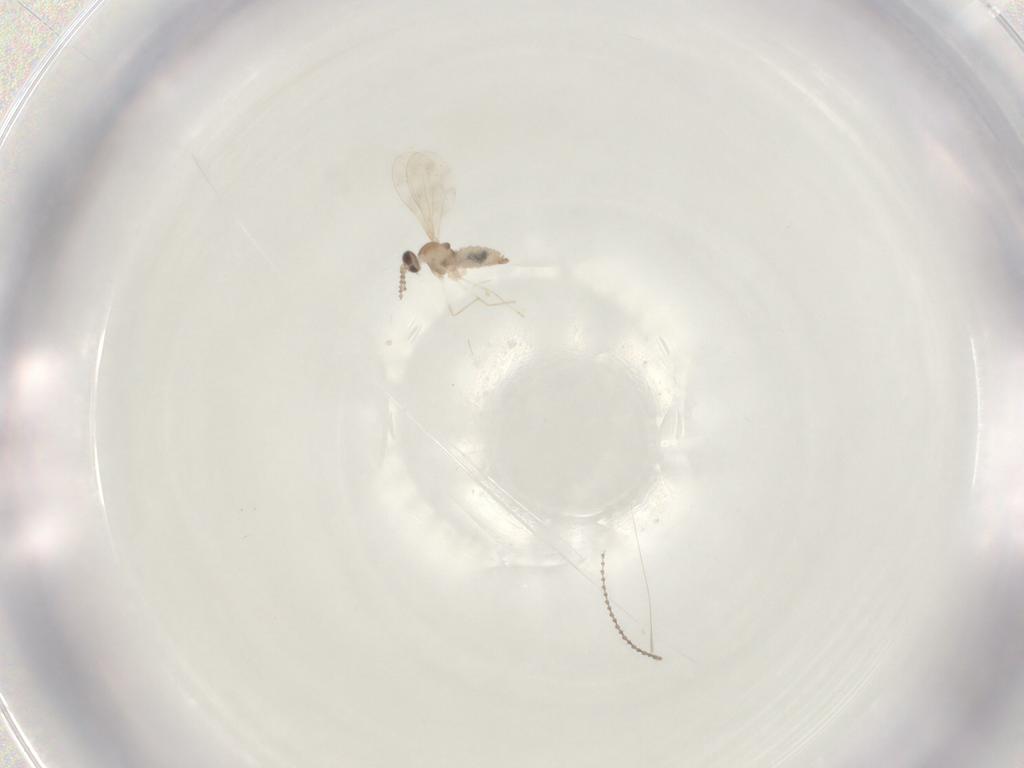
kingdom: Animalia
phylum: Arthropoda
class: Insecta
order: Diptera
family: Cecidomyiidae
